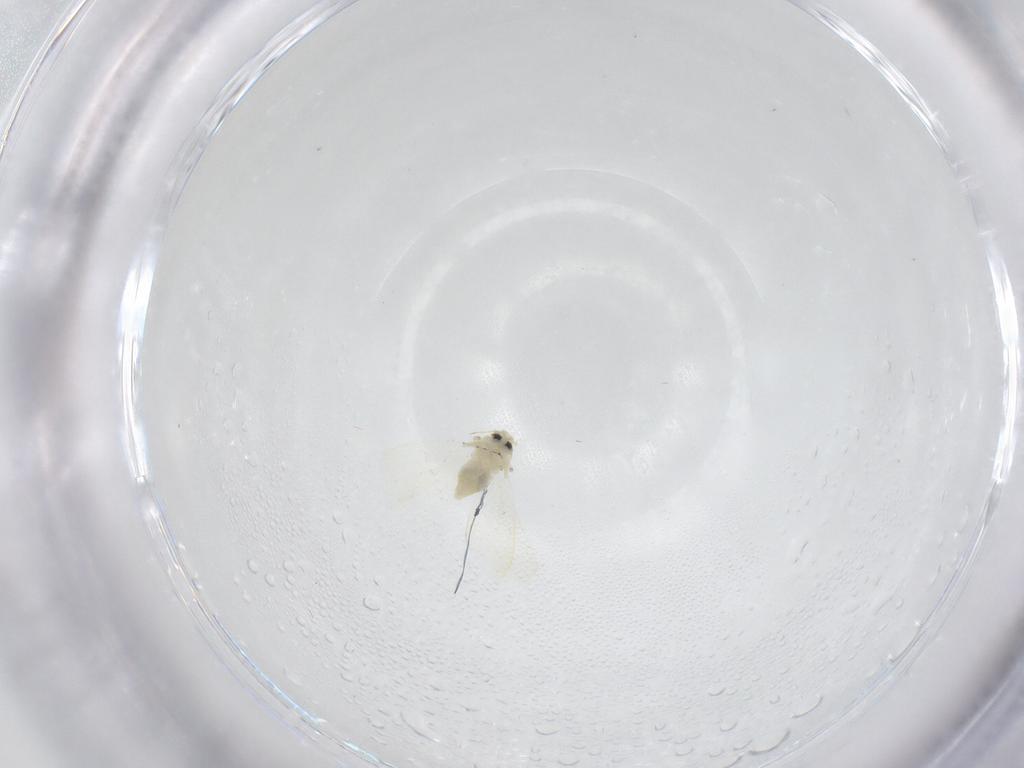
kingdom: Animalia
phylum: Arthropoda
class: Insecta
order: Hemiptera
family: Aleyrodidae
